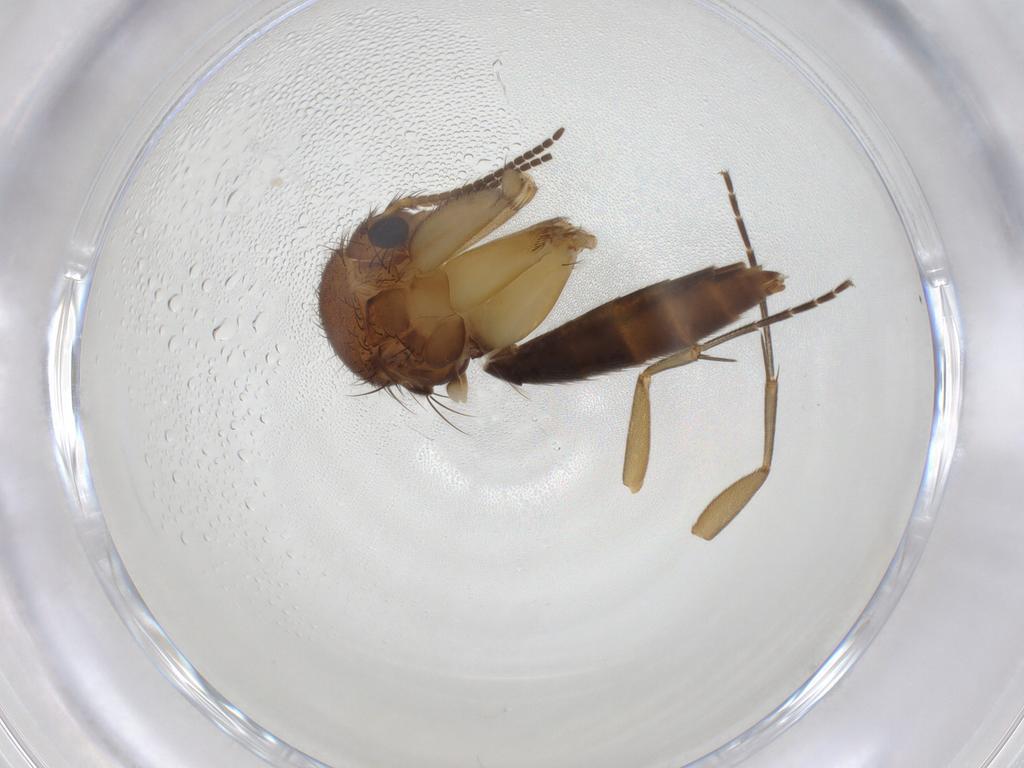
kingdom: Animalia
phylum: Arthropoda
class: Insecta
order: Diptera
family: Mycetophilidae
